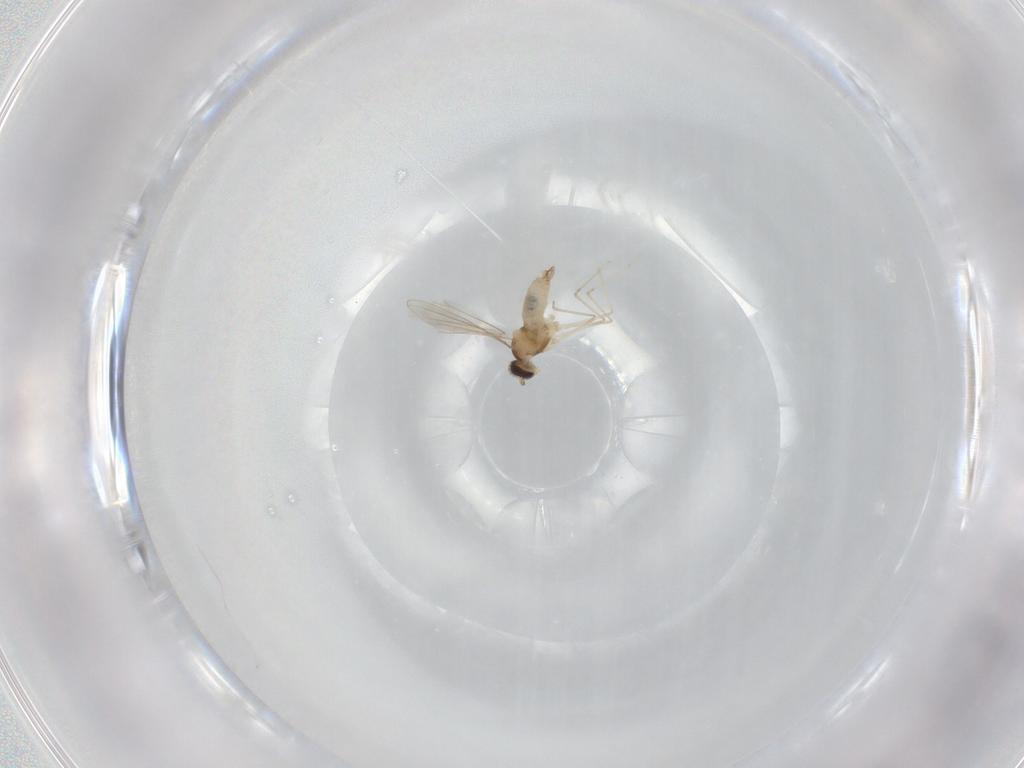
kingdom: Animalia
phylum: Arthropoda
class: Insecta
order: Diptera
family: Cecidomyiidae
